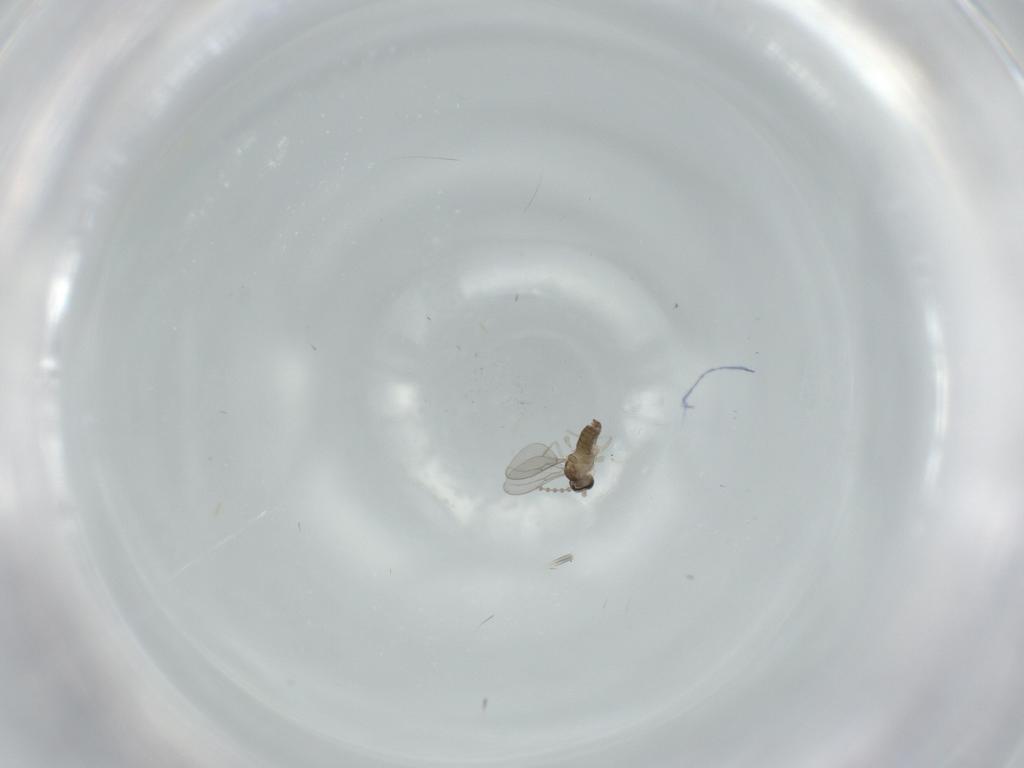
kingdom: Animalia
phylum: Arthropoda
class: Insecta
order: Diptera
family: Cecidomyiidae
